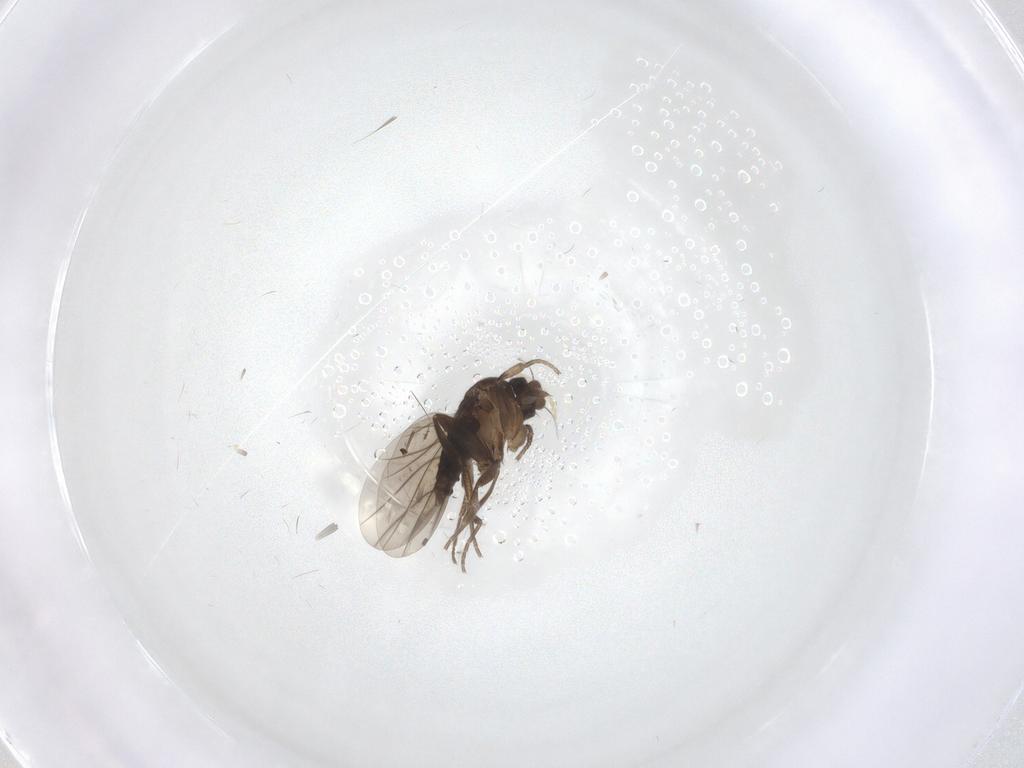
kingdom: Animalia
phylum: Arthropoda
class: Insecta
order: Diptera
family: Phoridae
